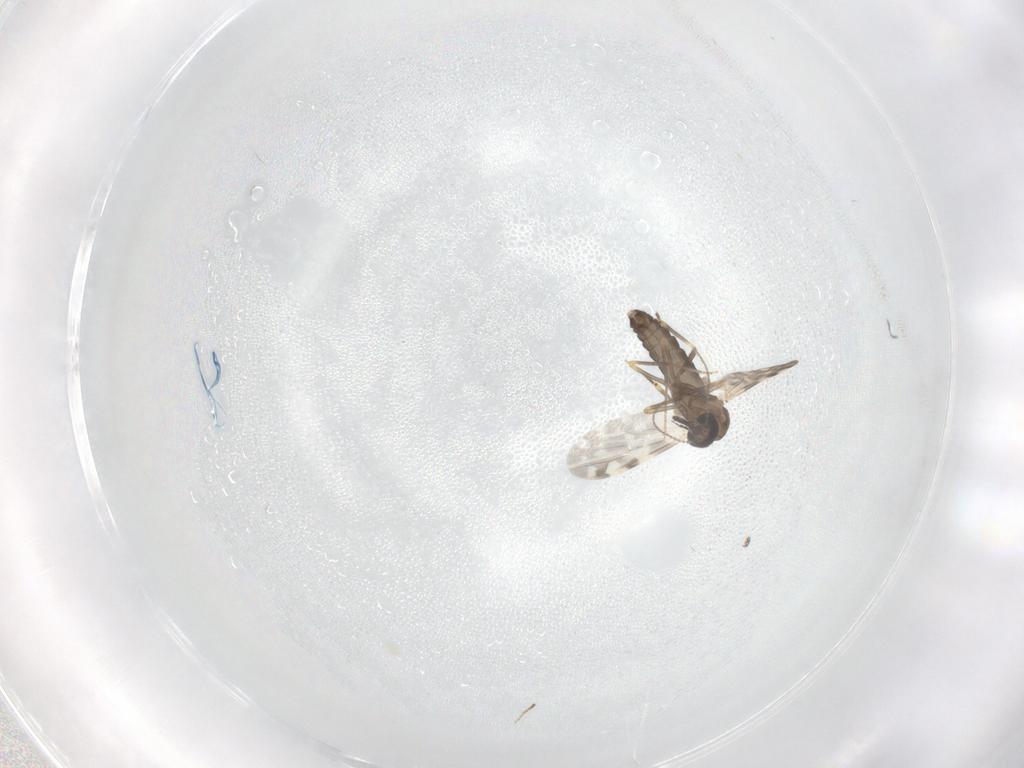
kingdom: Animalia
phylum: Arthropoda
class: Insecta
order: Diptera
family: Ceratopogonidae
